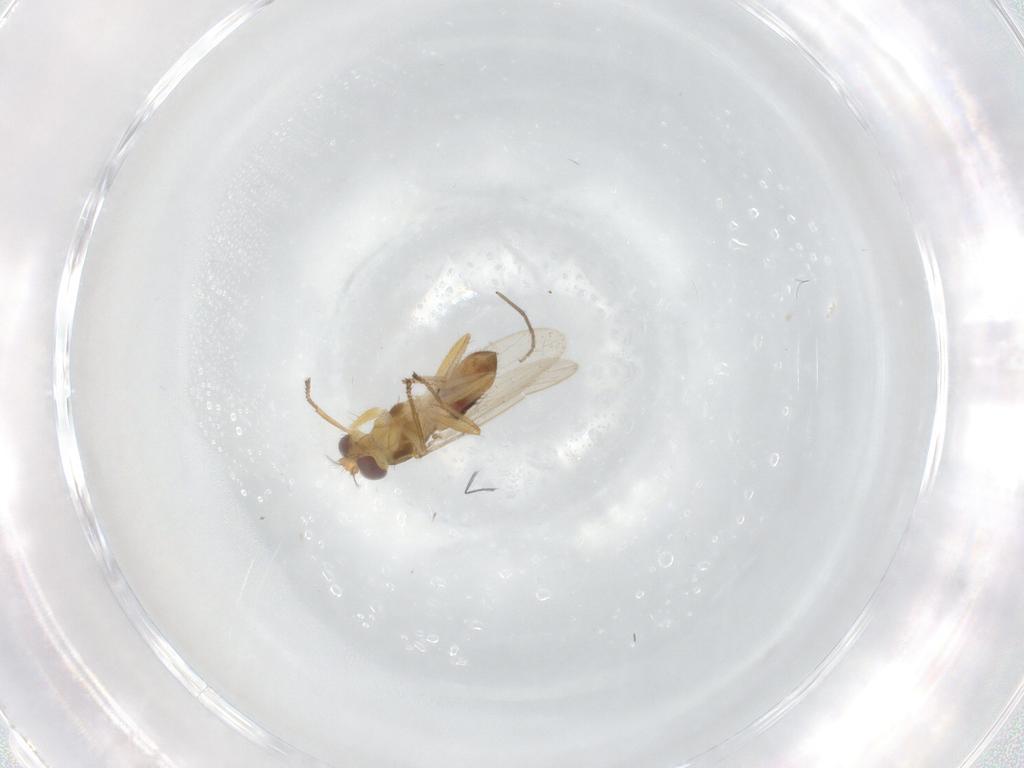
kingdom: Animalia
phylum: Arthropoda
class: Insecta
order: Diptera
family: Chironomidae
